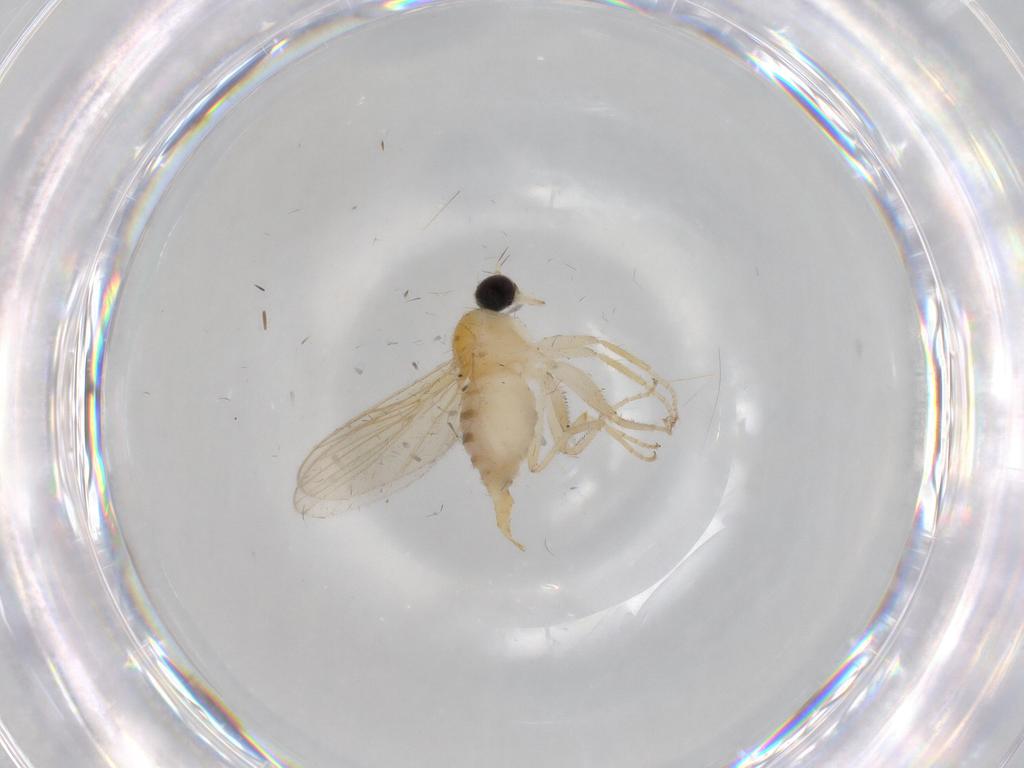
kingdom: Animalia
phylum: Arthropoda
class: Insecta
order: Diptera
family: Sciaridae
